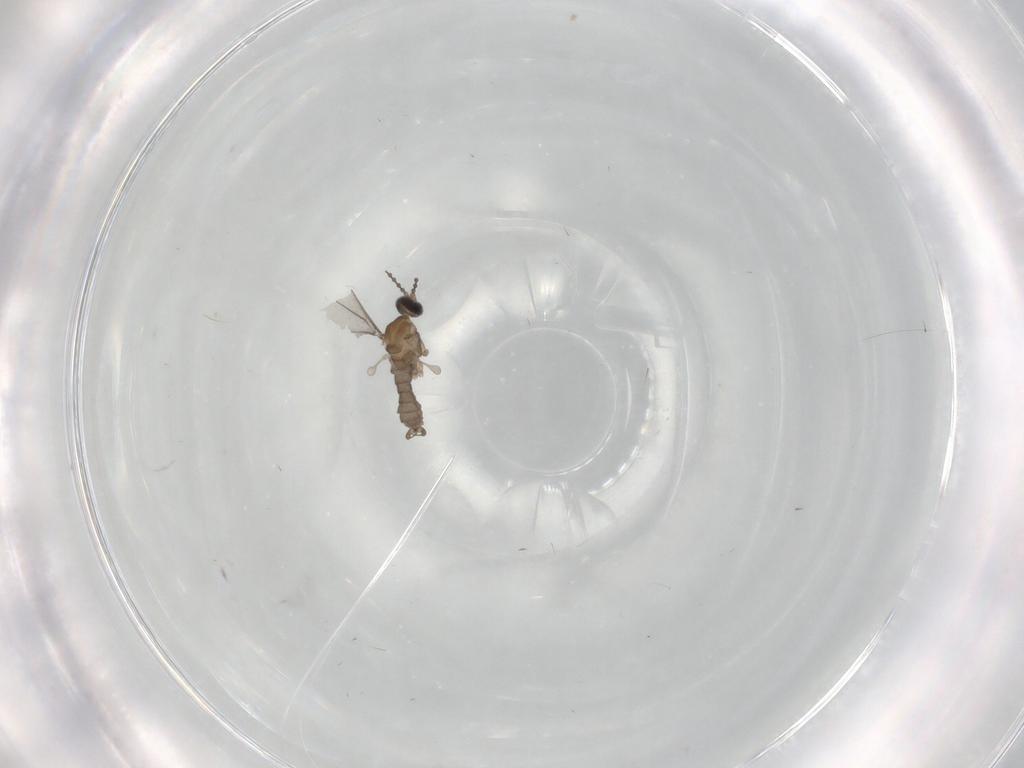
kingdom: Animalia
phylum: Arthropoda
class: Insecta
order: Diptera
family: Cecidomyiidae
